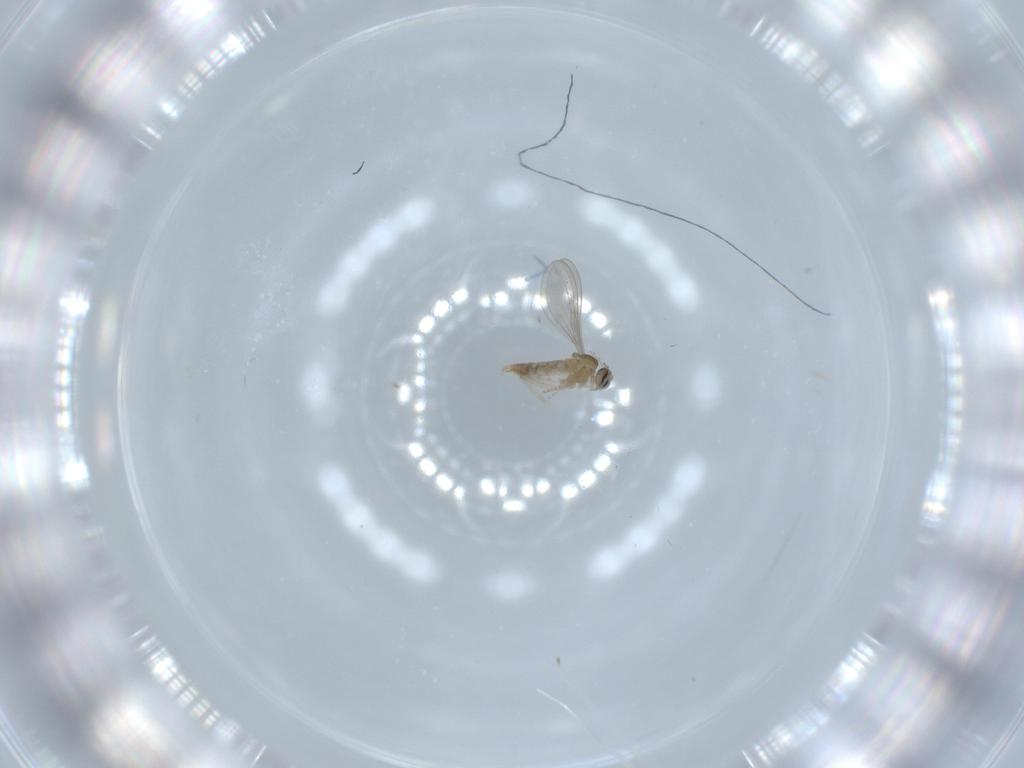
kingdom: Animalia
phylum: Arthropoda
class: Insecta
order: Diptera
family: Cecidomyiidae
